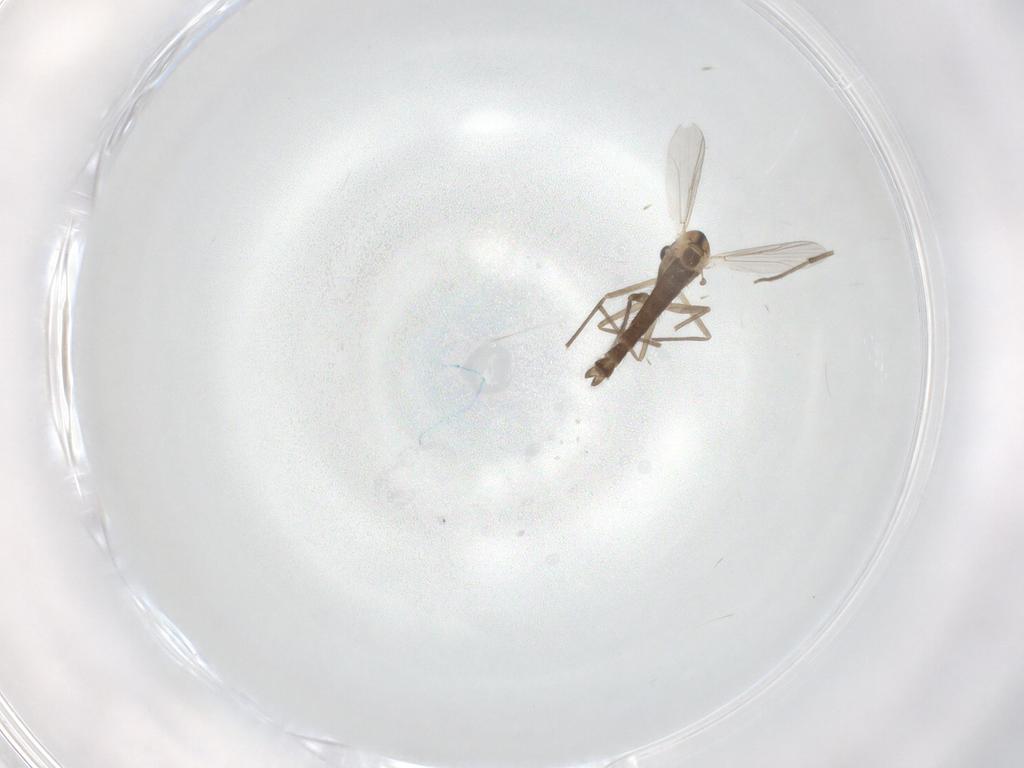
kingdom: Animalia
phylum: Arthropoda
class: Insecta
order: Diptera
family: Chironomidae
